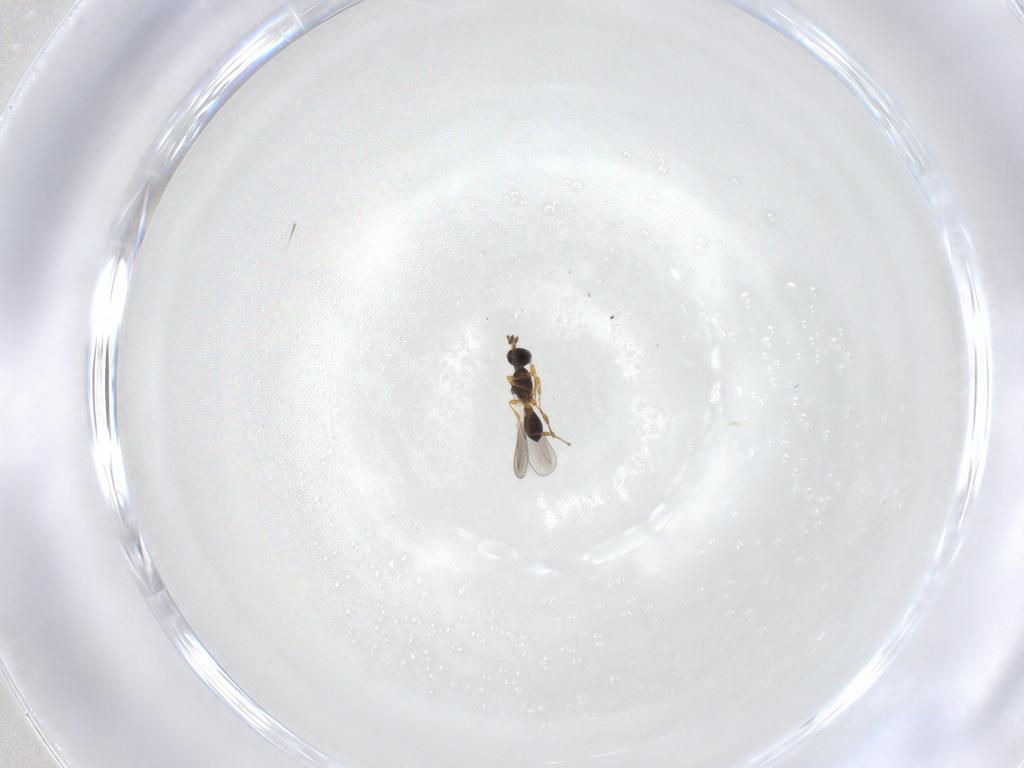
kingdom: Animalia
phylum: Arthropoda
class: Insecta
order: Hymenoptera
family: Platygastridae
